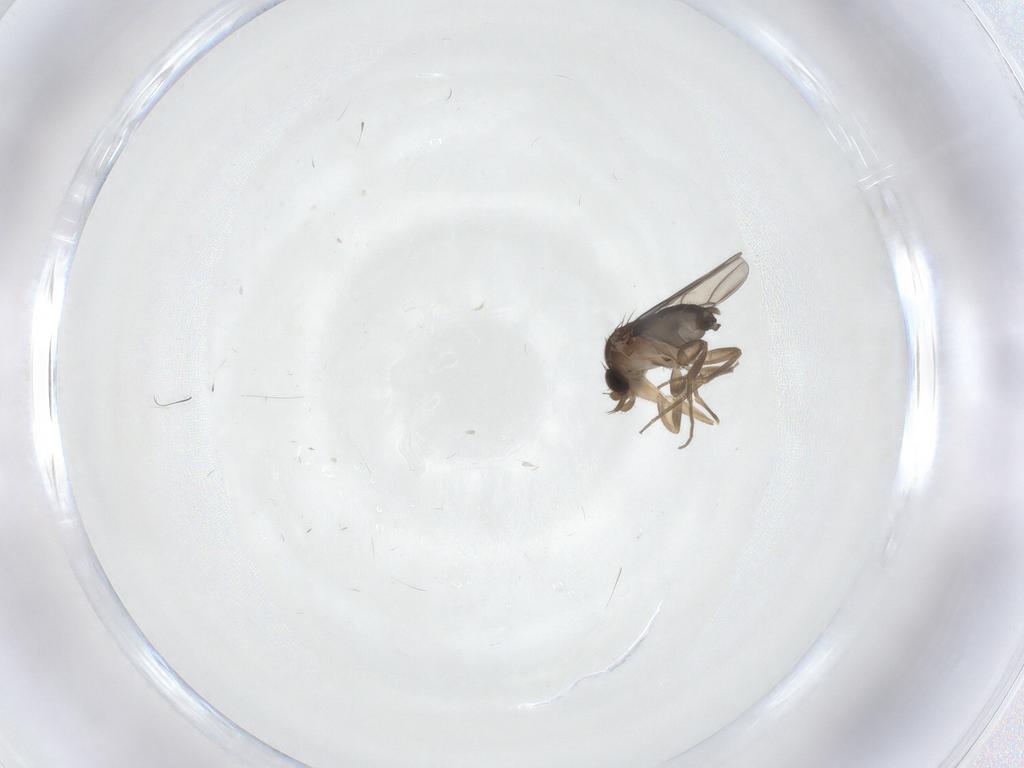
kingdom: Animalia
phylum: Arthropoda
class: Insecta
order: Diptera
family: Phoridae
